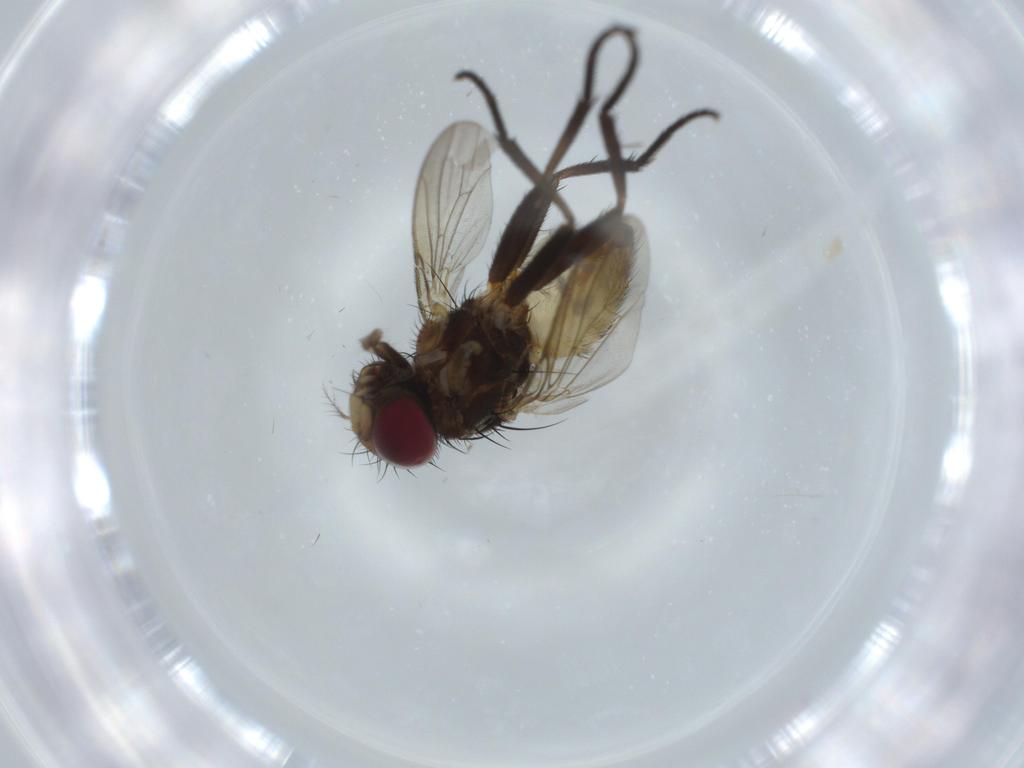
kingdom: Animalia
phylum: Arthropoda
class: Insecta
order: Diptera
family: Anthomyiidae
